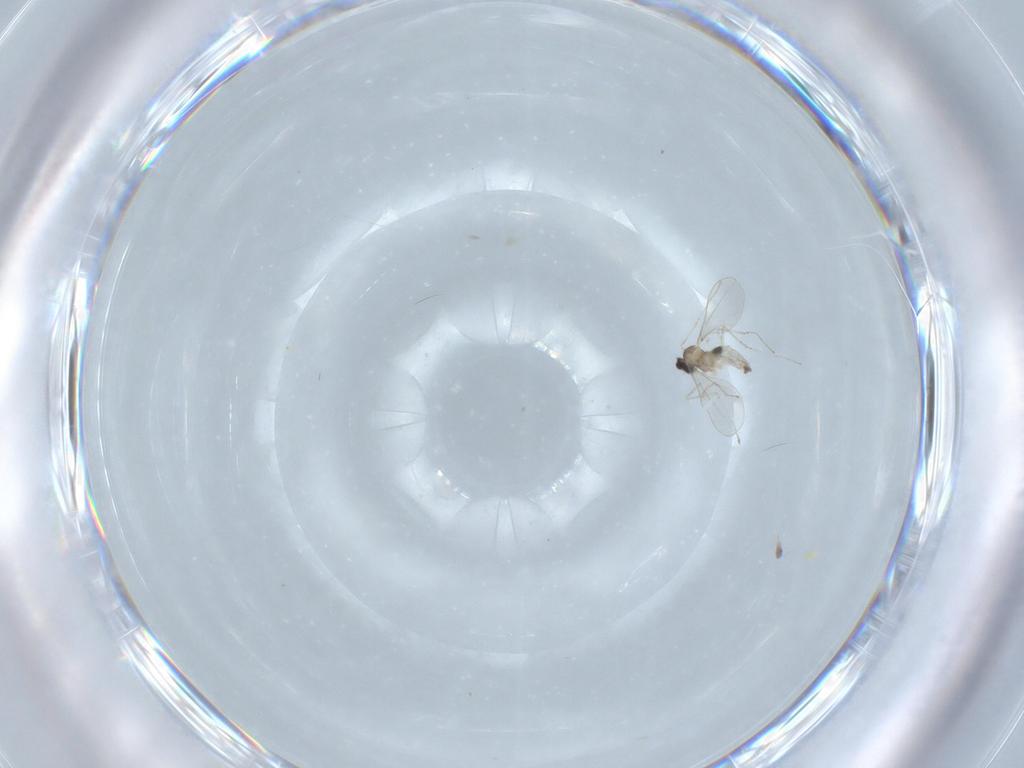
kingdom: Animalia
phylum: Arthropoda
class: Insecta
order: Diptera
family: Cecidomyiidae
